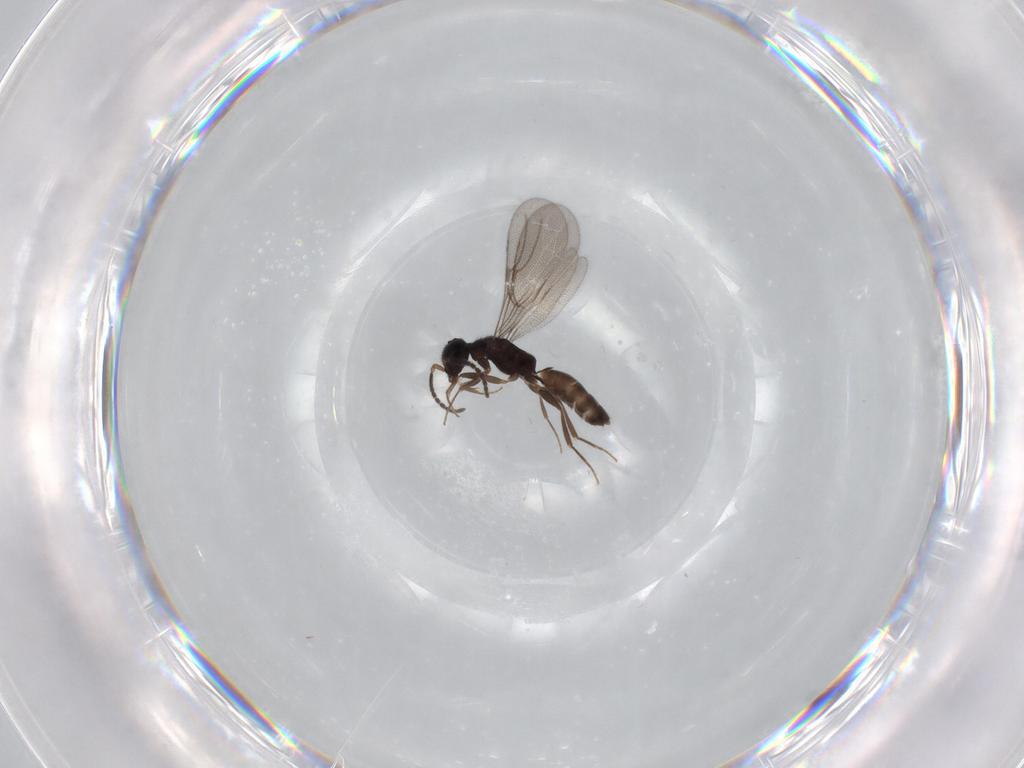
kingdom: Animalia
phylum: Arthropoda
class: Insecta
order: Hymenoptera
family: Bethylidae
